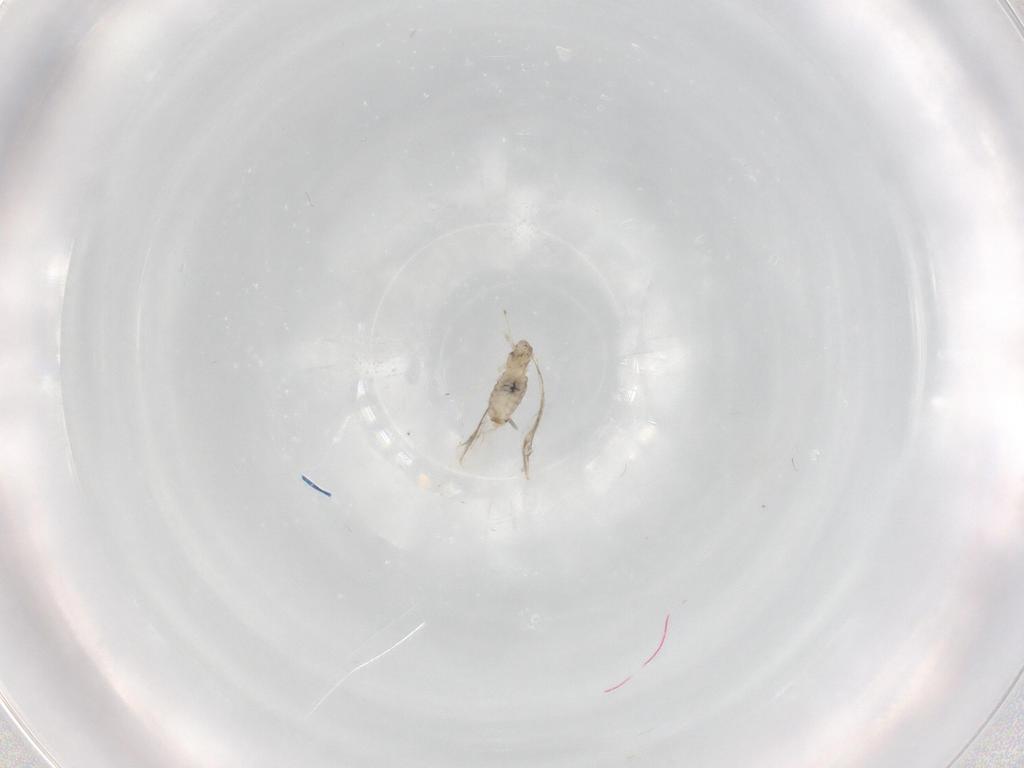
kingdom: Animalia
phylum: Arthropoda
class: Insecta
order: Diptera
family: Cecidomyiidae
